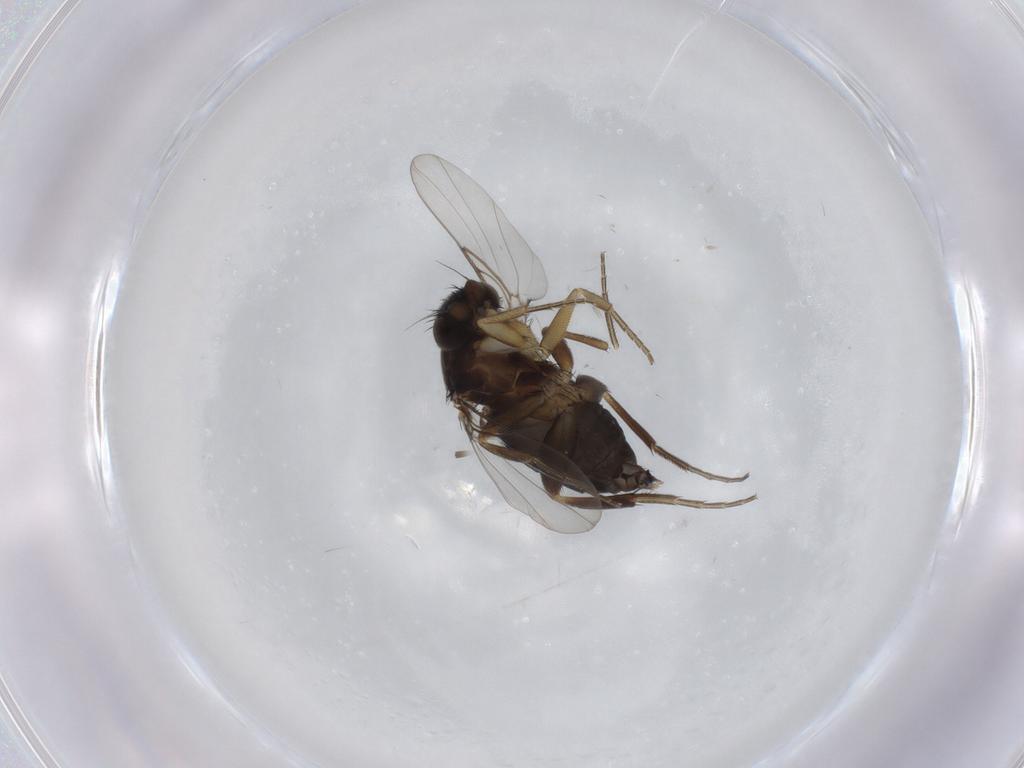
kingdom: Animalia
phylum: Arthropoda
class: Insecta
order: Diptera
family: Phoridae
